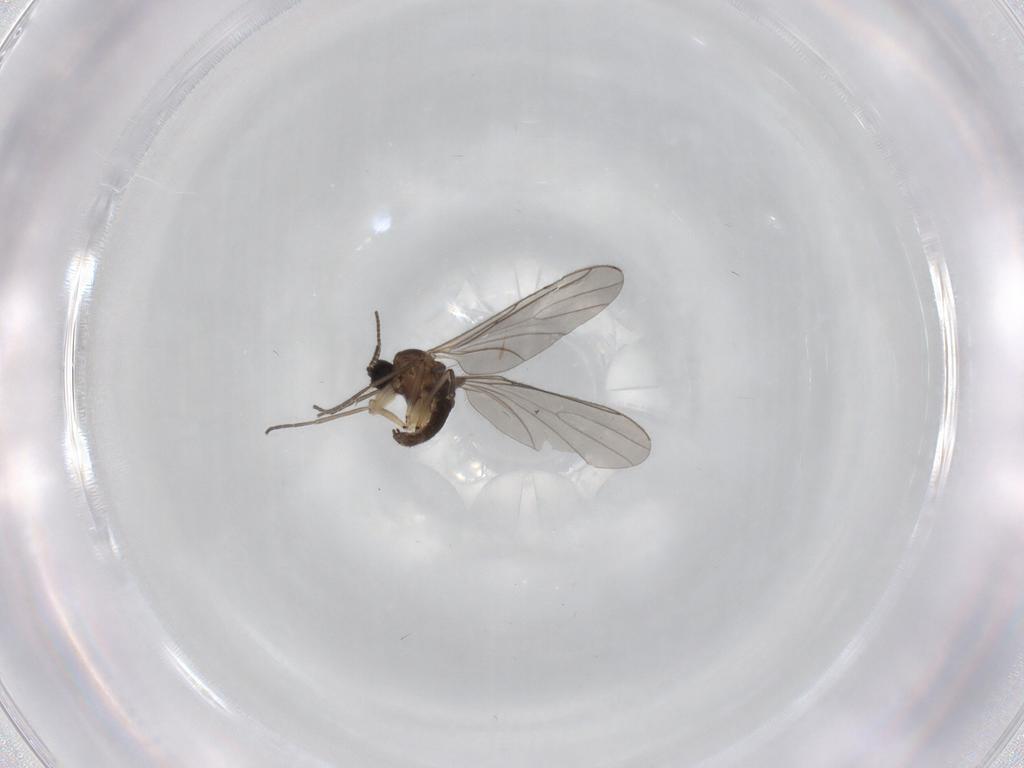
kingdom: Animalia
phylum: Arthropoda
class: Insecta
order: Diptera
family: Sciaridae
